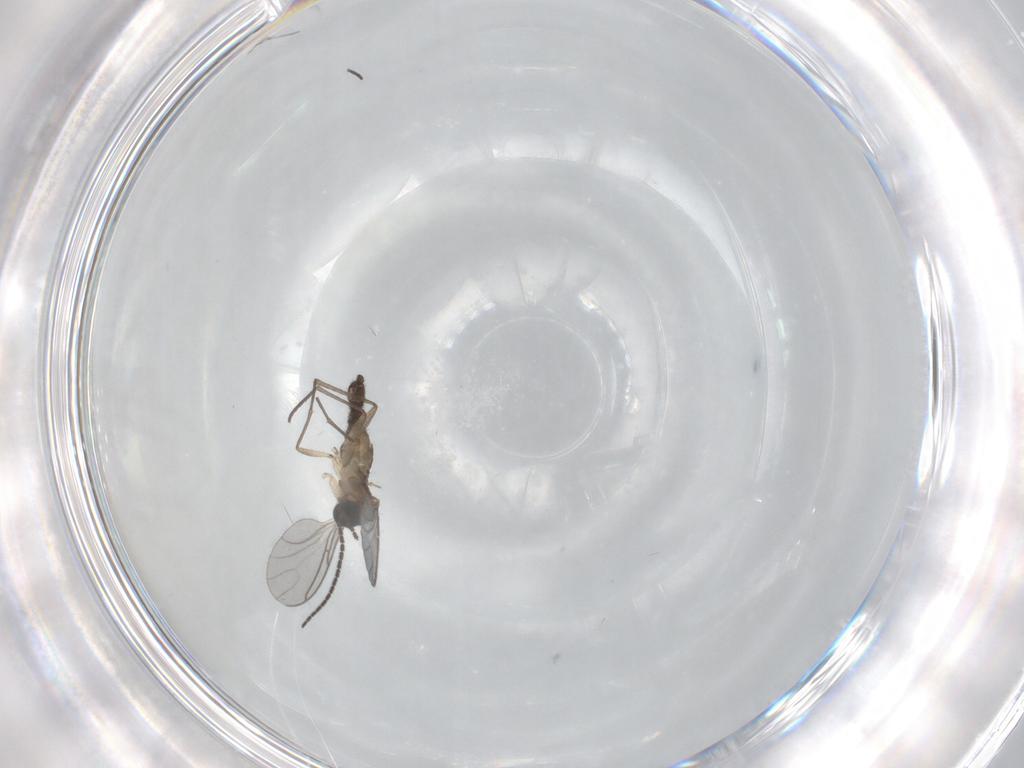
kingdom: Animalia
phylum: Arthropoda
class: Insecta
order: Diptera
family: Sciaridae
